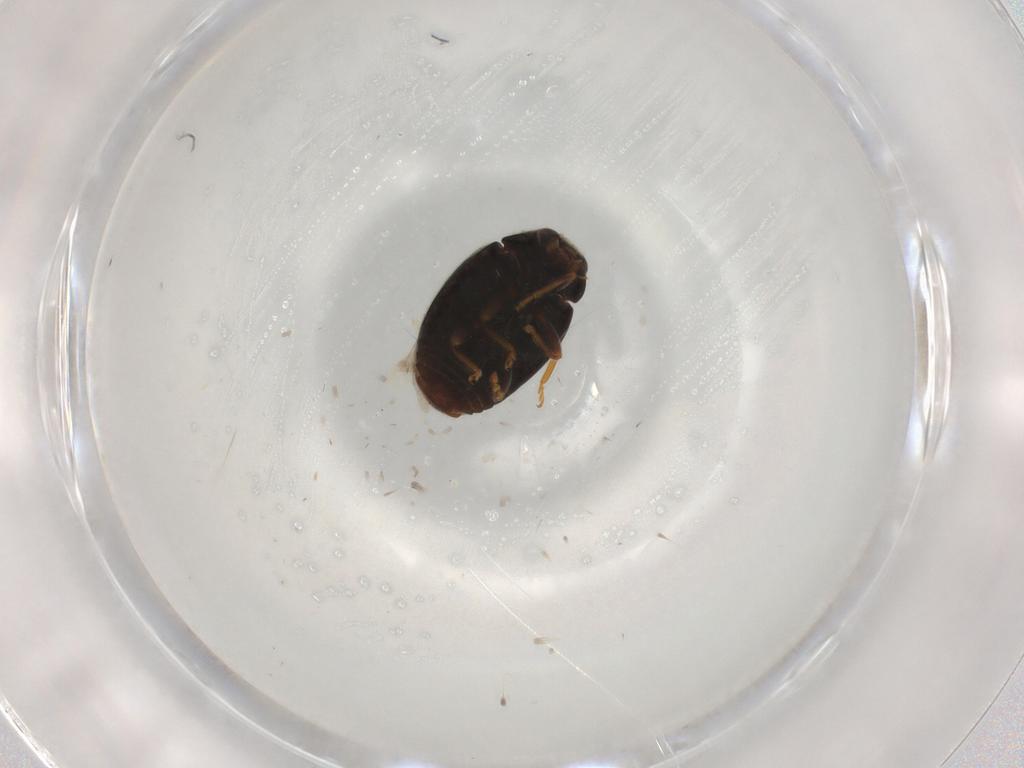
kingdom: Animalia
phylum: Arthropoda
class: Insecta
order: Coleoptera
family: Coccinellidae
